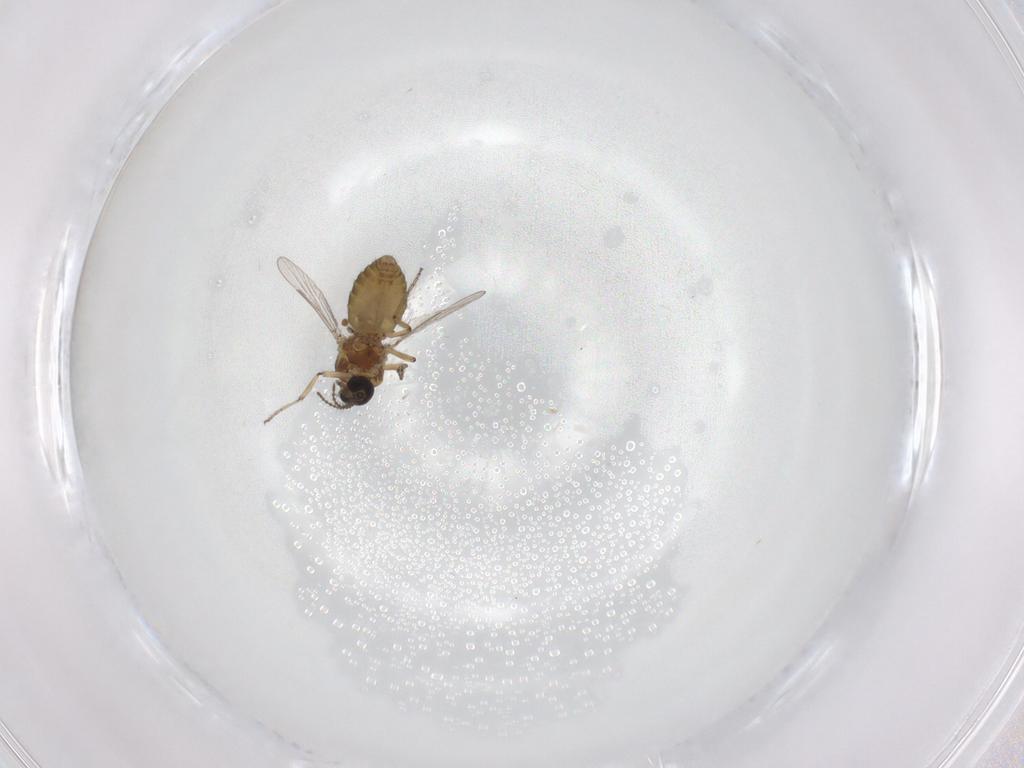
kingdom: Animalia
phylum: Arthropoda
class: Insecta
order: Diptera
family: Ceratopogonidae
